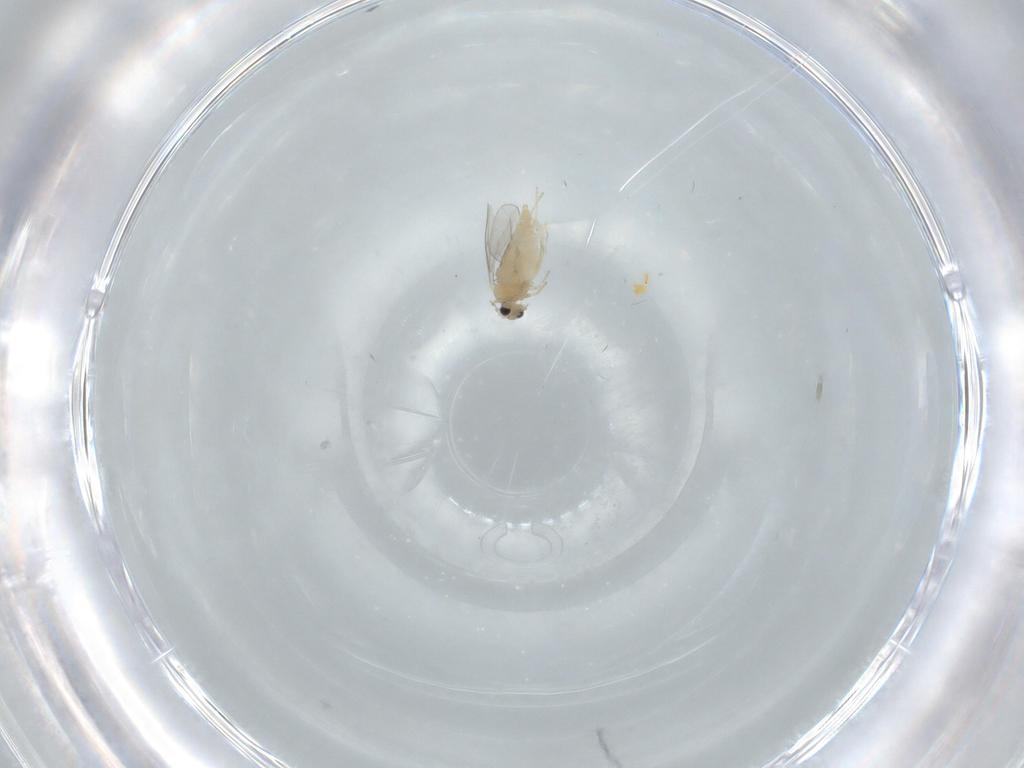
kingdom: Animalia
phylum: Arthropoda
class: Insecta
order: Diptera
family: Cecidomyiidae
